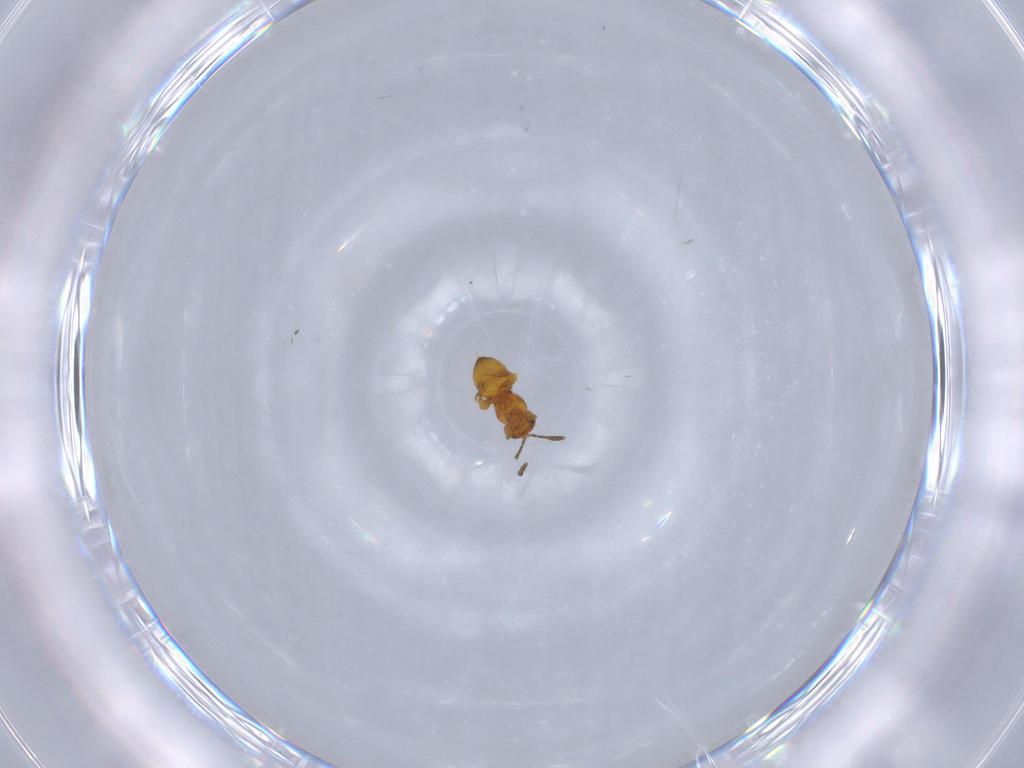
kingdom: Animalia
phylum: Arthropoda
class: Insecta
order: Hymenoptera
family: Scelionidae
